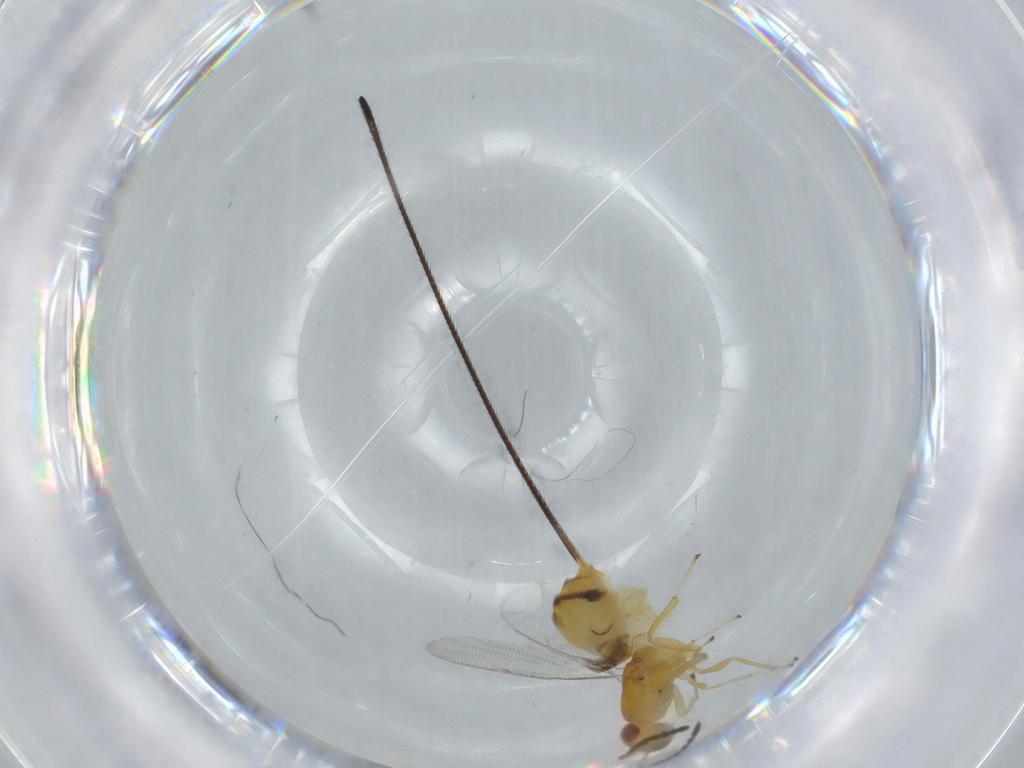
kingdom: Animalia
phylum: Arthropoda
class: Insecta
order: Hymenoptera
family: Pteromalidae
